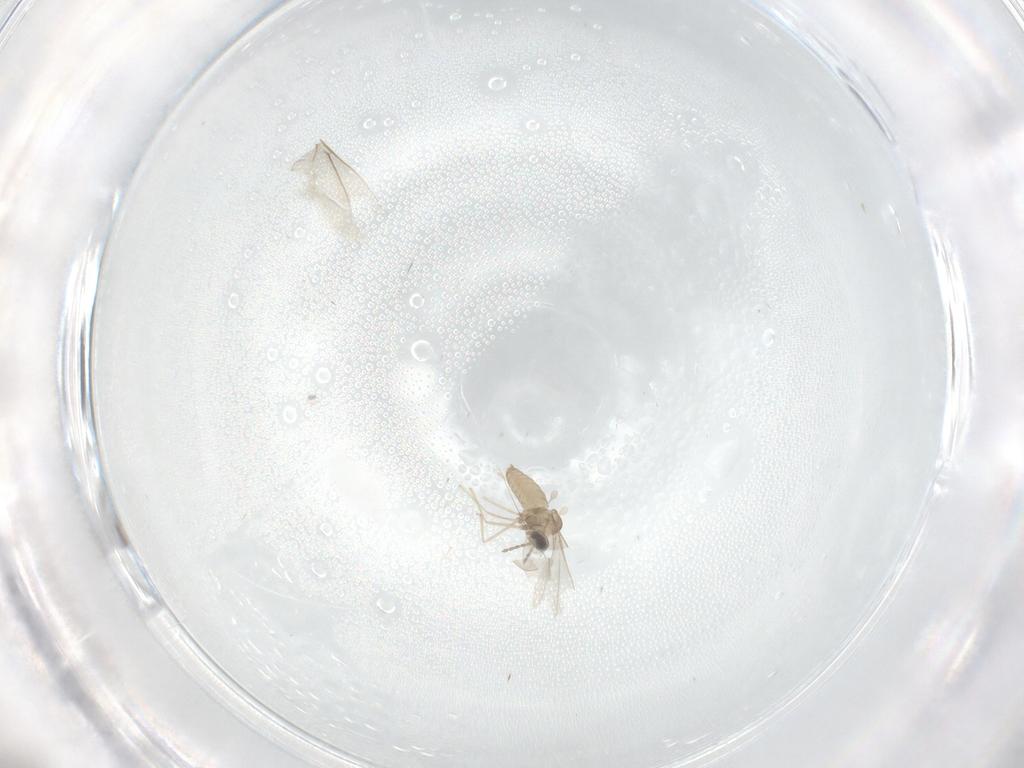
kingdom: Animalia
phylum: Arthropoda
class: Insecta
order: Diptera
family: Cecidomyiidae
